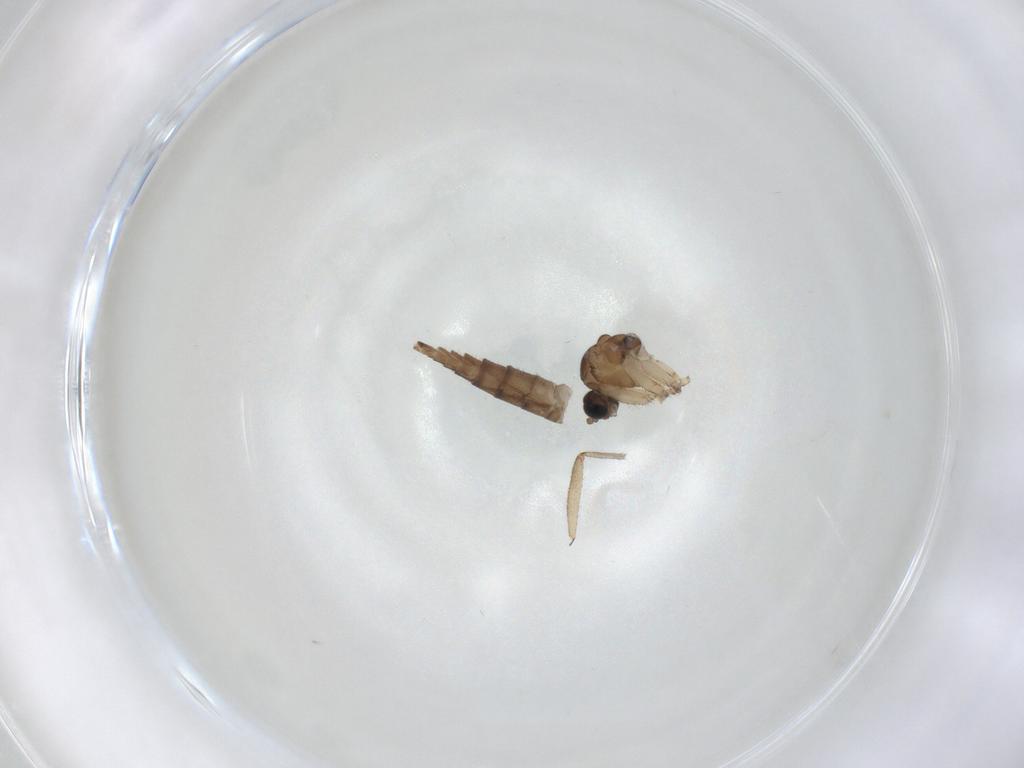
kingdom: Animalia
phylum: Arthropoda
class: Insecta
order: Diptera
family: Sciaridae
